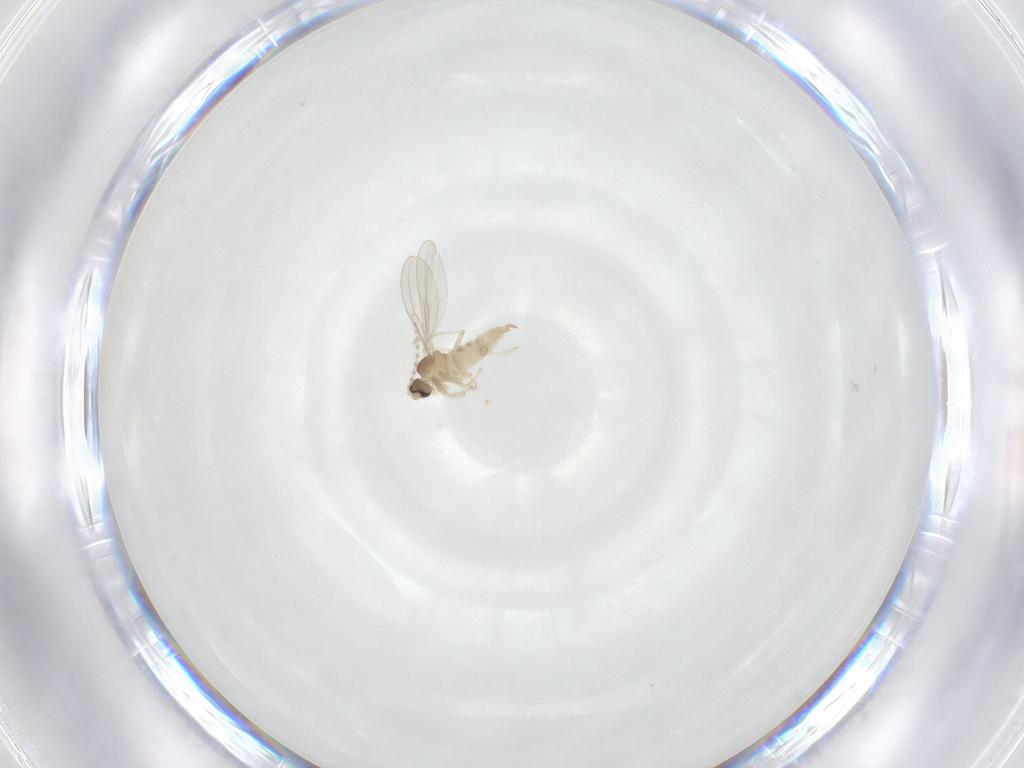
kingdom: Animalia
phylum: Arthropoda
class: Insecta
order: Diptera
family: Cecidomyiidae
